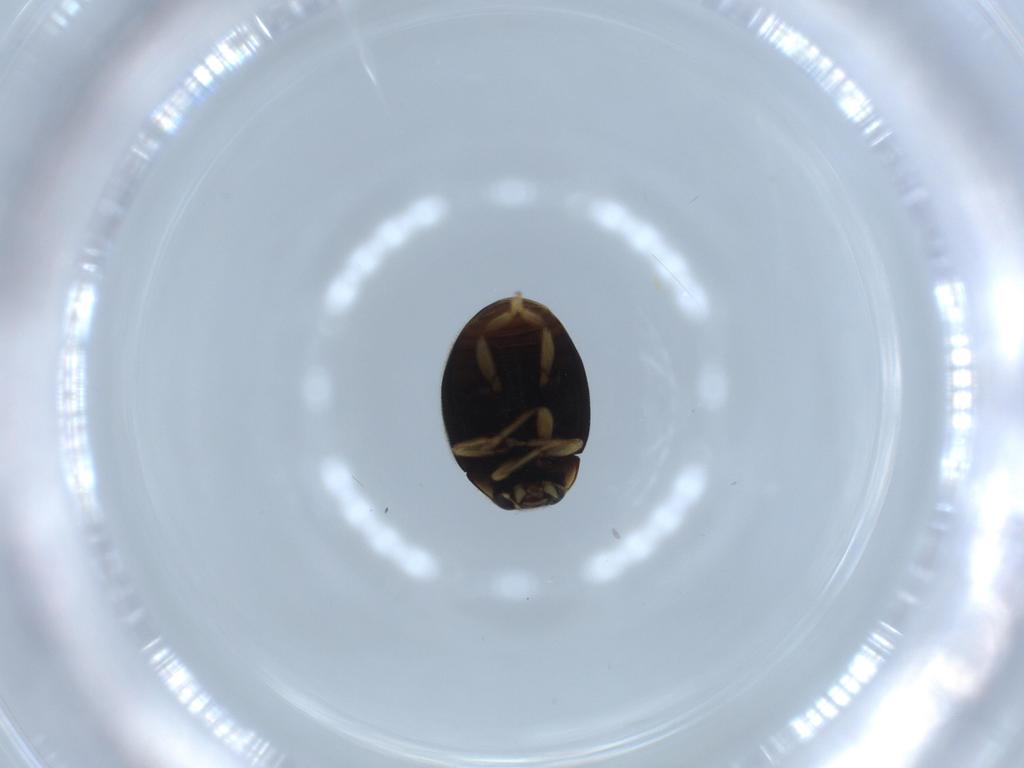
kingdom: Animalia
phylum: Arthropoda
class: Insecta
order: Coleoptera
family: Coccinellidae
